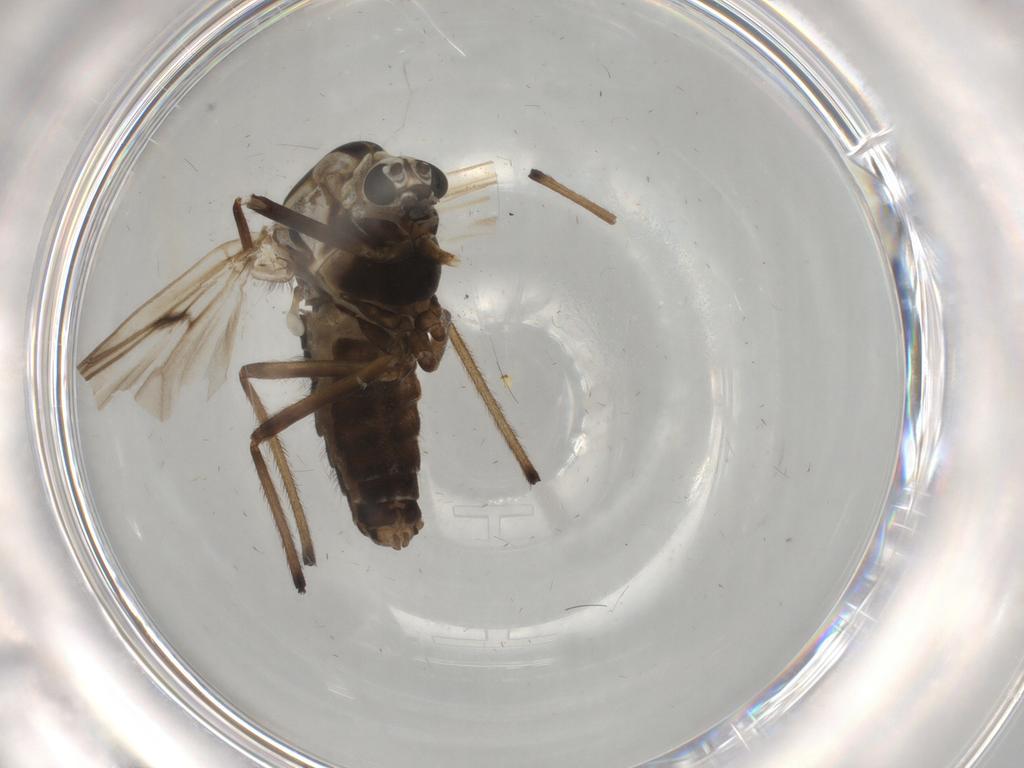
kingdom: Animalia
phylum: Arthropoda
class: Insecta
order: Diptera
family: Chironomidae
